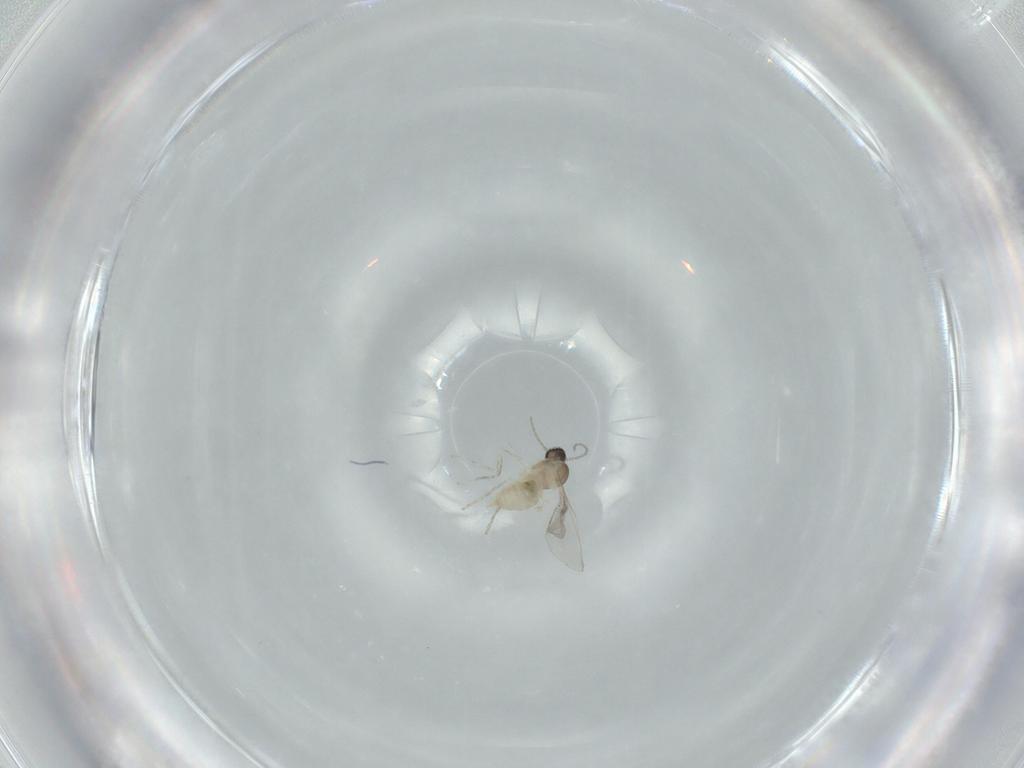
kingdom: Animalia
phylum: Arthropoda
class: Insecta
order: Diptera
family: Cecidomyiidae
